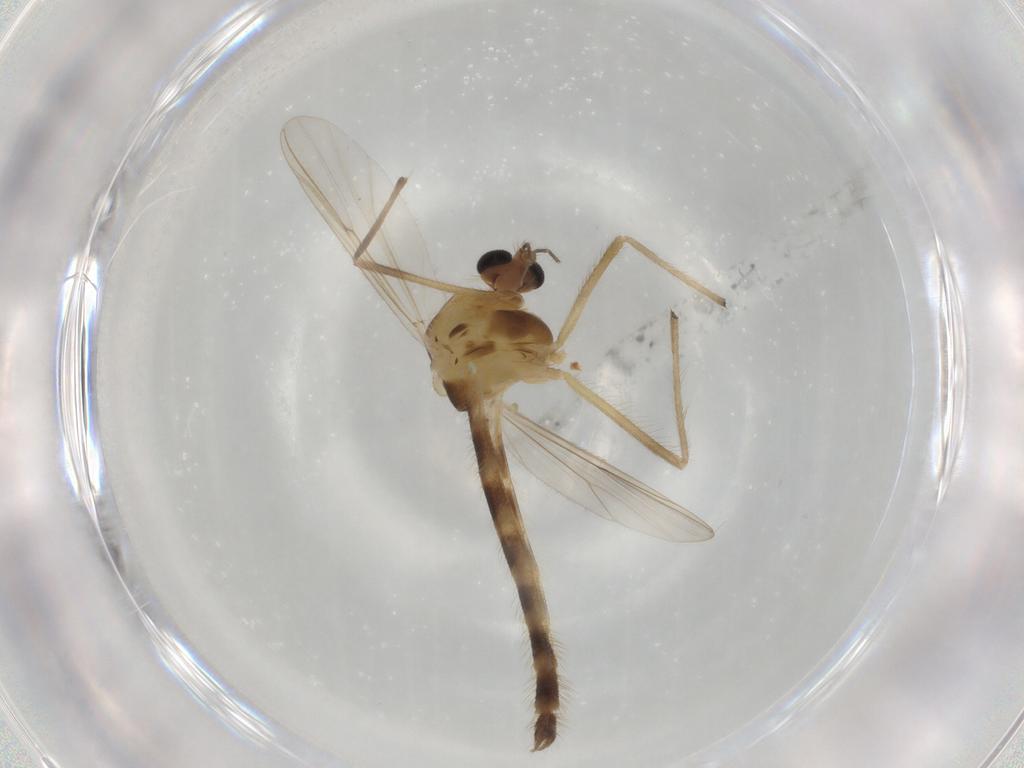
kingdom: Animalia
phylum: Arthropoda
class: Insecta
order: Diptera
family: Chironomidae
